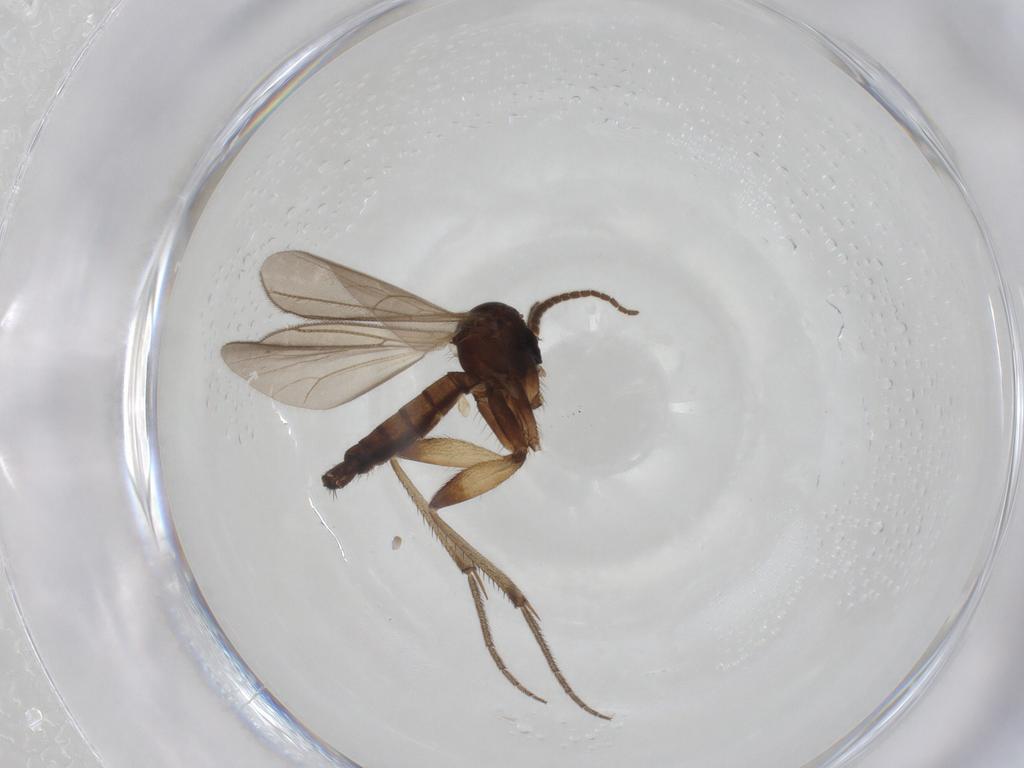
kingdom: Animalia
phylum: Arthropoda
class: Insecta
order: Diptera
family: Mycetophilidae
